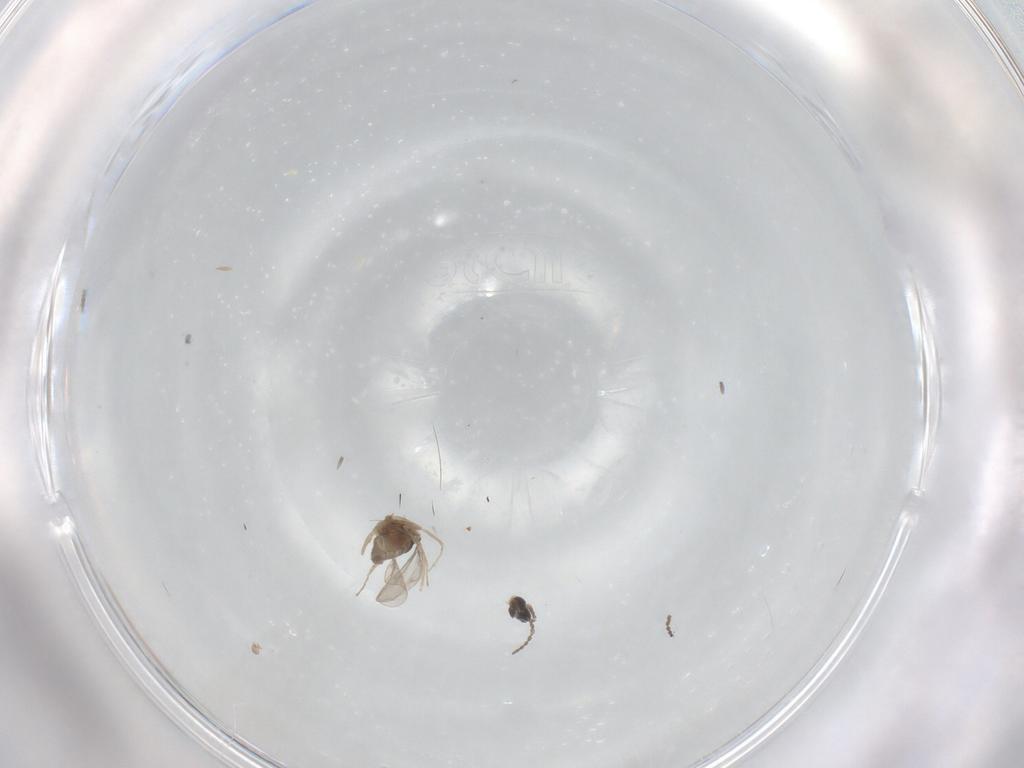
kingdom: Animalia
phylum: Arthropoda
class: Insecta
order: Diptera
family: Cecidomyiidae
